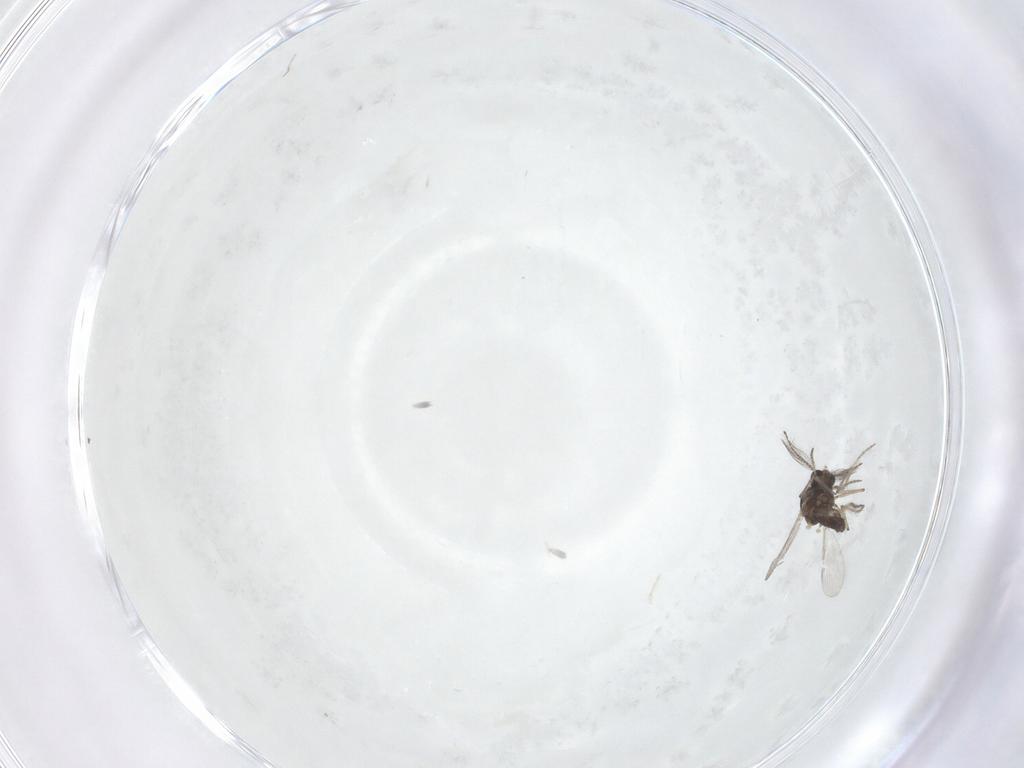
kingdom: Animalia
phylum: Arthropoda
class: Insecta
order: Diptera
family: Ceratopogonidae
